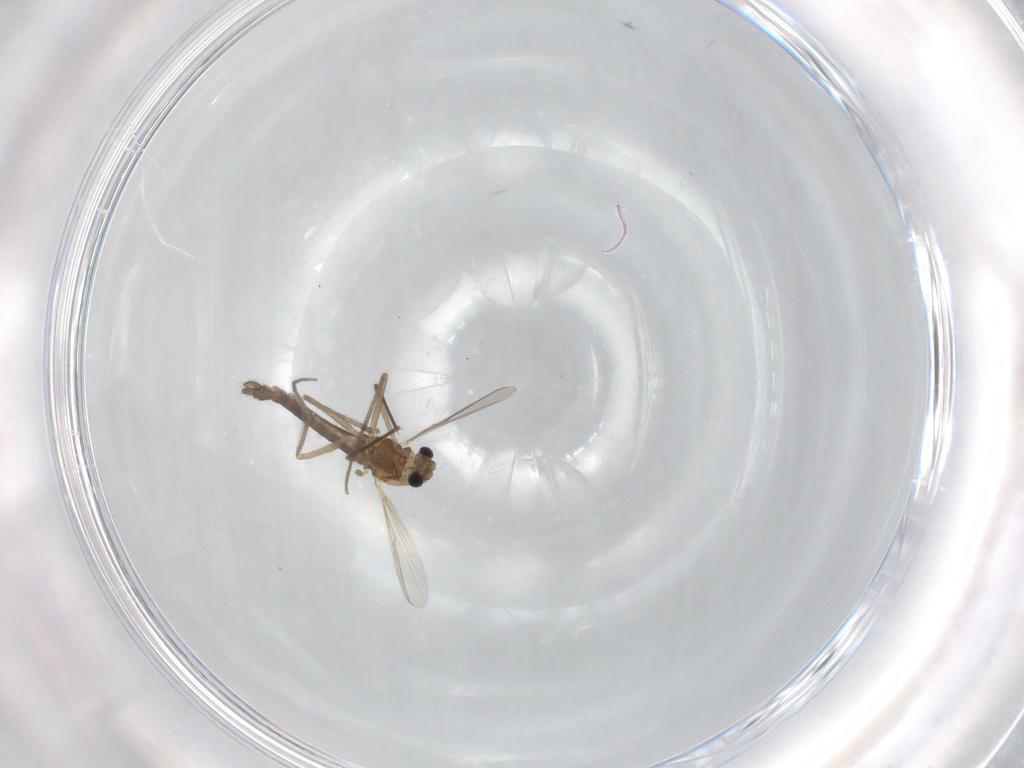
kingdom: Animalia
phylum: Arthropoda
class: Insecta
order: Diptera
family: Chironomidae
